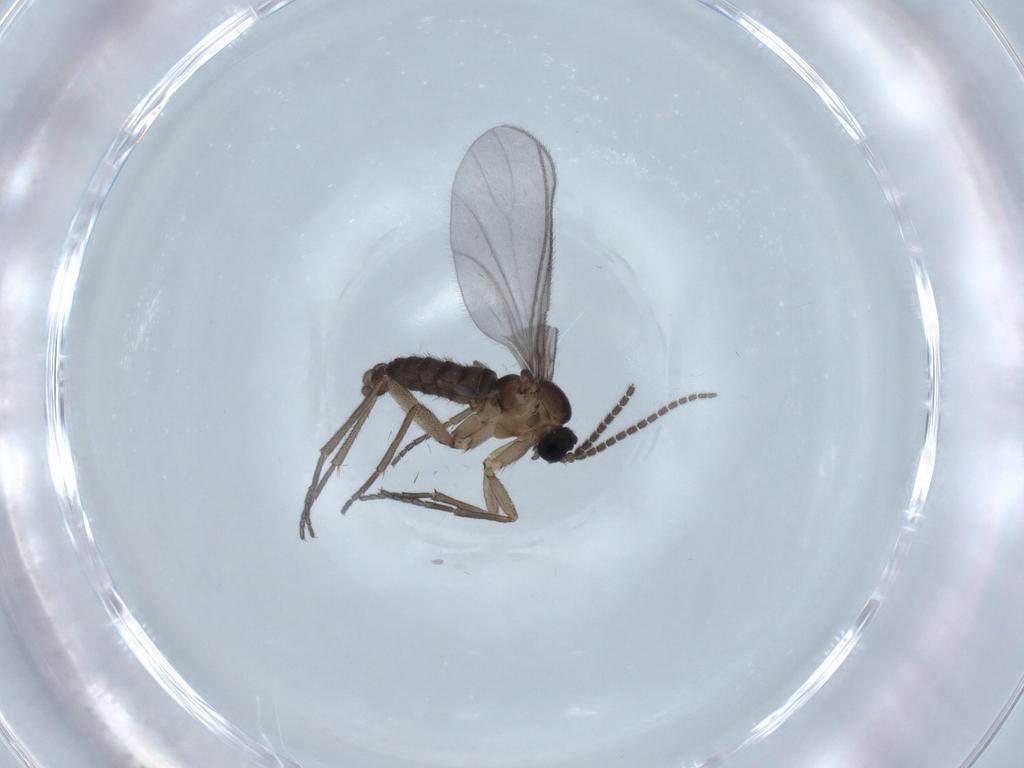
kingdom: Animalia
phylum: Arthropoda
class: Insecta
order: Diptera
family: Sciaridae
